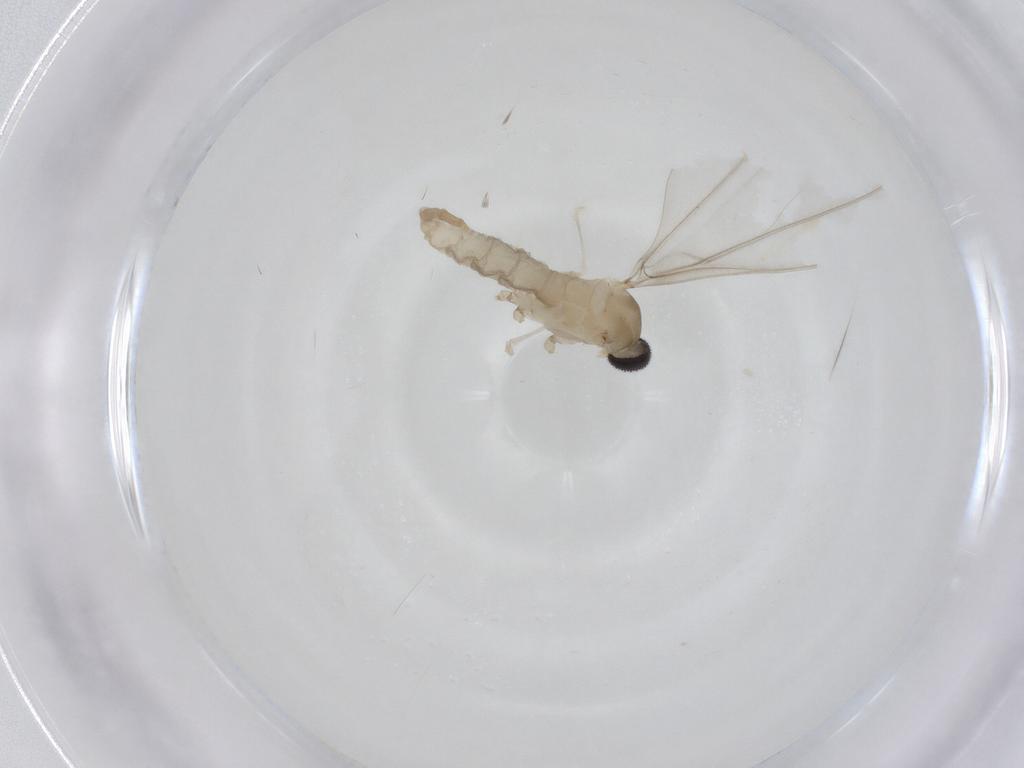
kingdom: Animalia
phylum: Arthropoda
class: Insecta
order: Diptera
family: Cecidomyiidae
